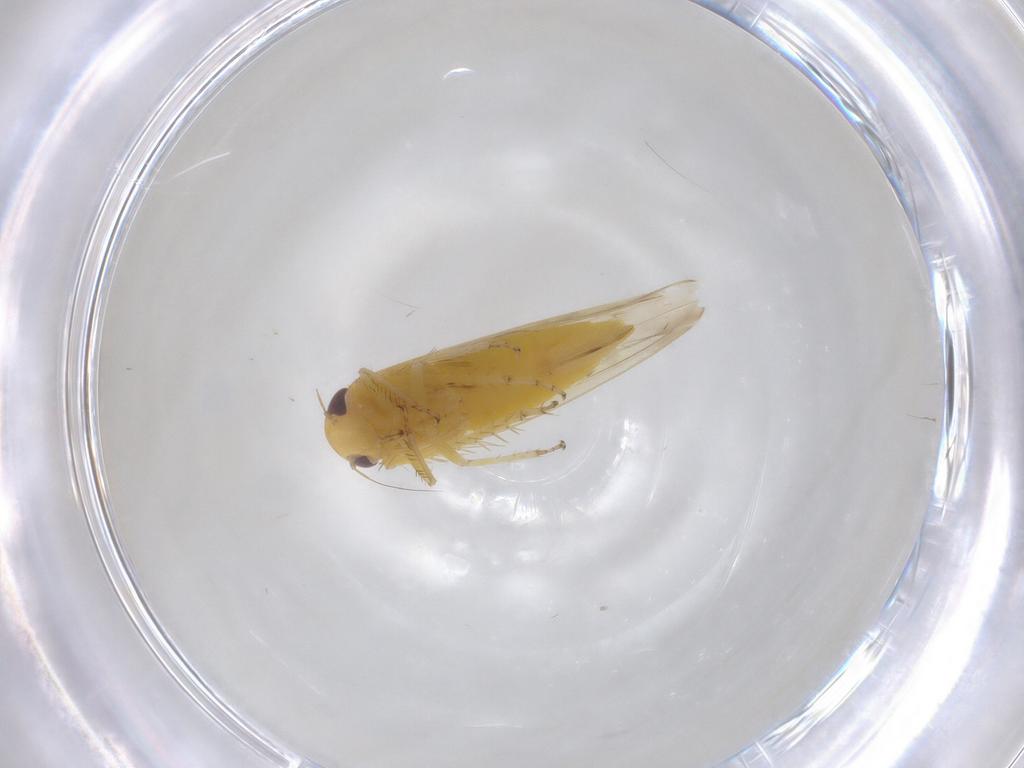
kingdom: Animalia
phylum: Arthropoda
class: Insecta
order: Hemiptera
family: Cicadellidae
